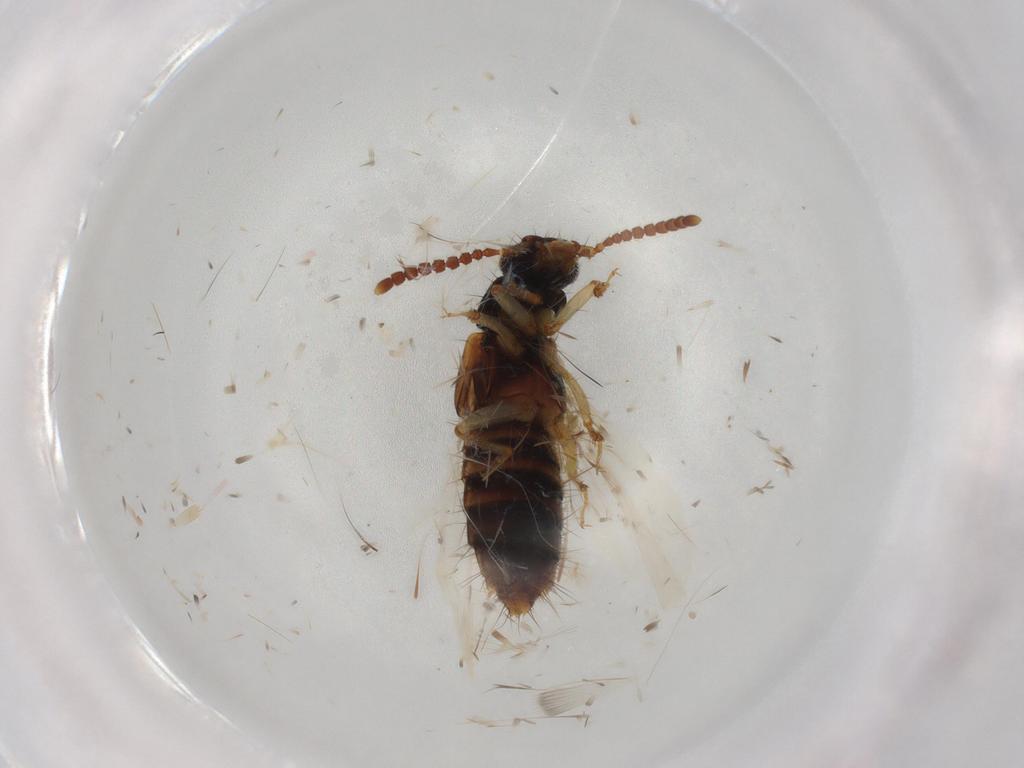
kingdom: Animalia
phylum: Arthropoda
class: Insecta
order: Coleoptera
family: Staphylinidae
